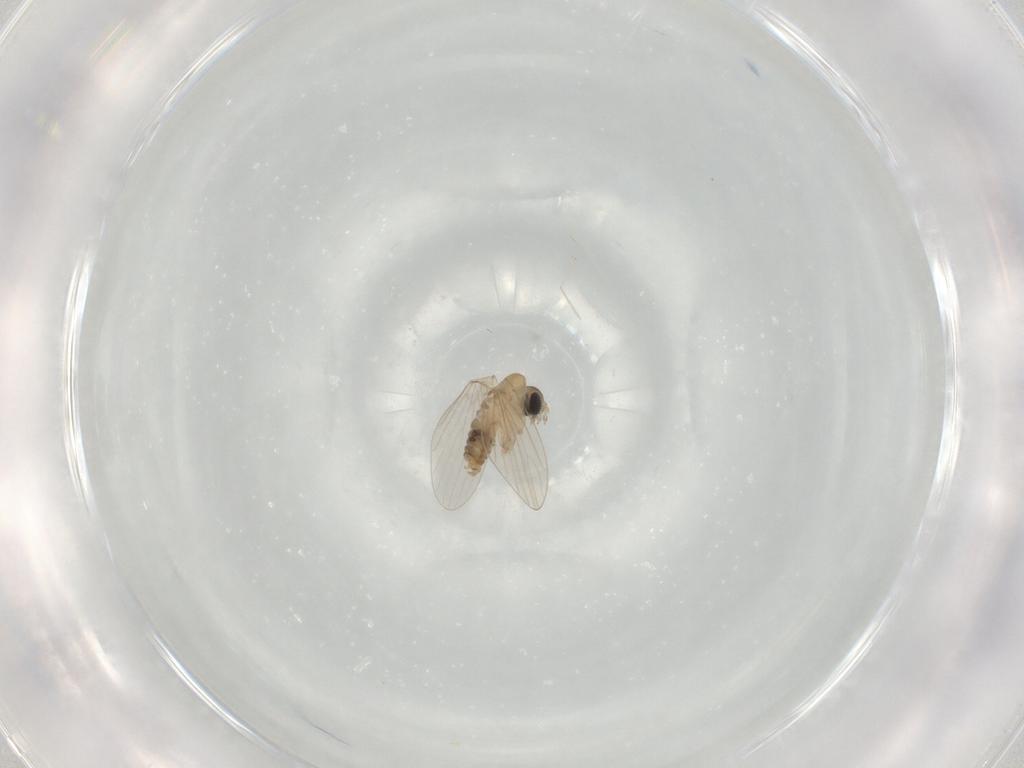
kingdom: Animalia
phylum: Arthropoda
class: Insecta
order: Diptera
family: Psychodidae
